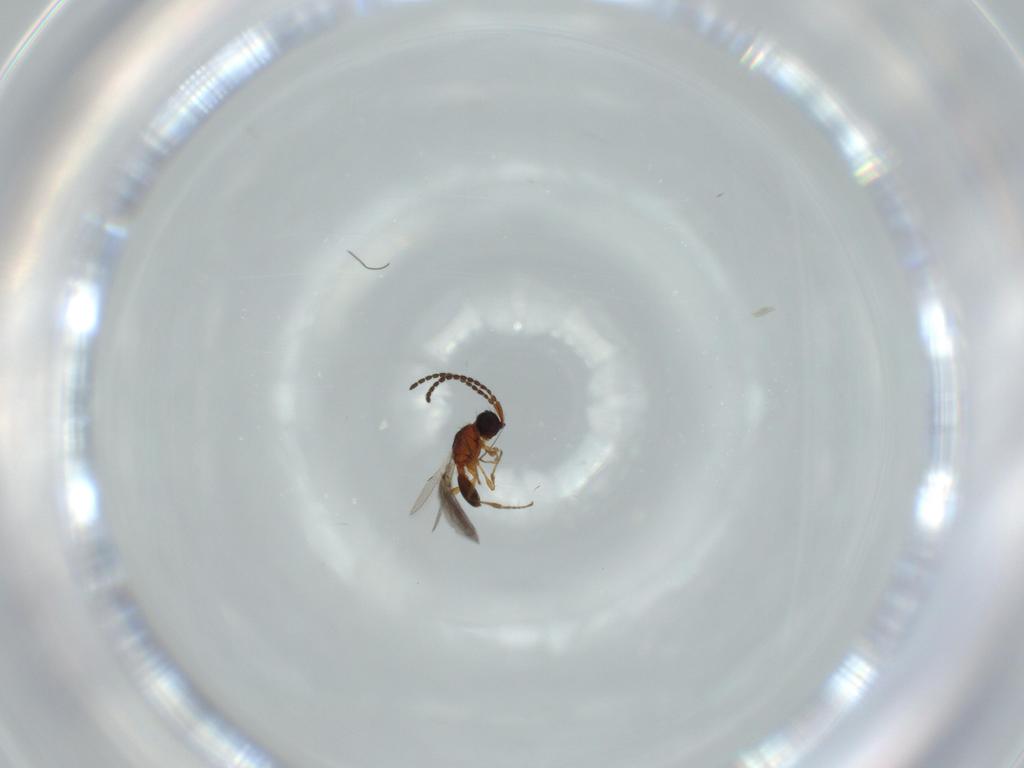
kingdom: Animalia
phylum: Arthropoda
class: Insecta
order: Hymenoptera
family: Diapriidae
